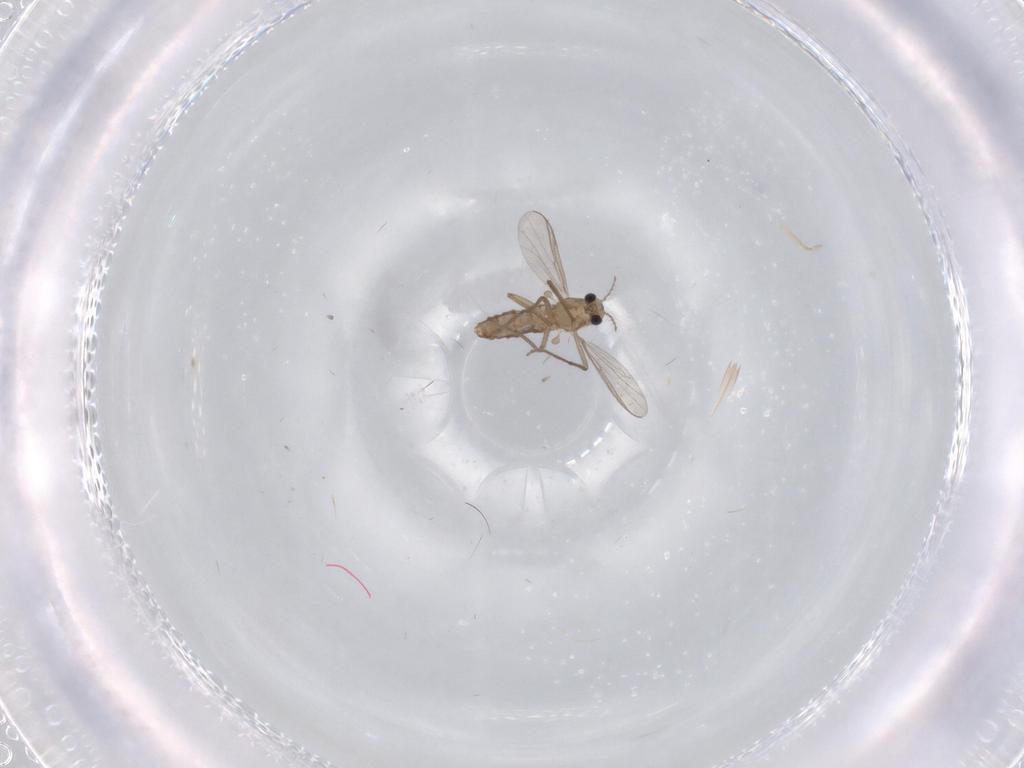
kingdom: Animalia
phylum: Arthropoda
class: Insecta
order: Diptera
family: Chironomidae
